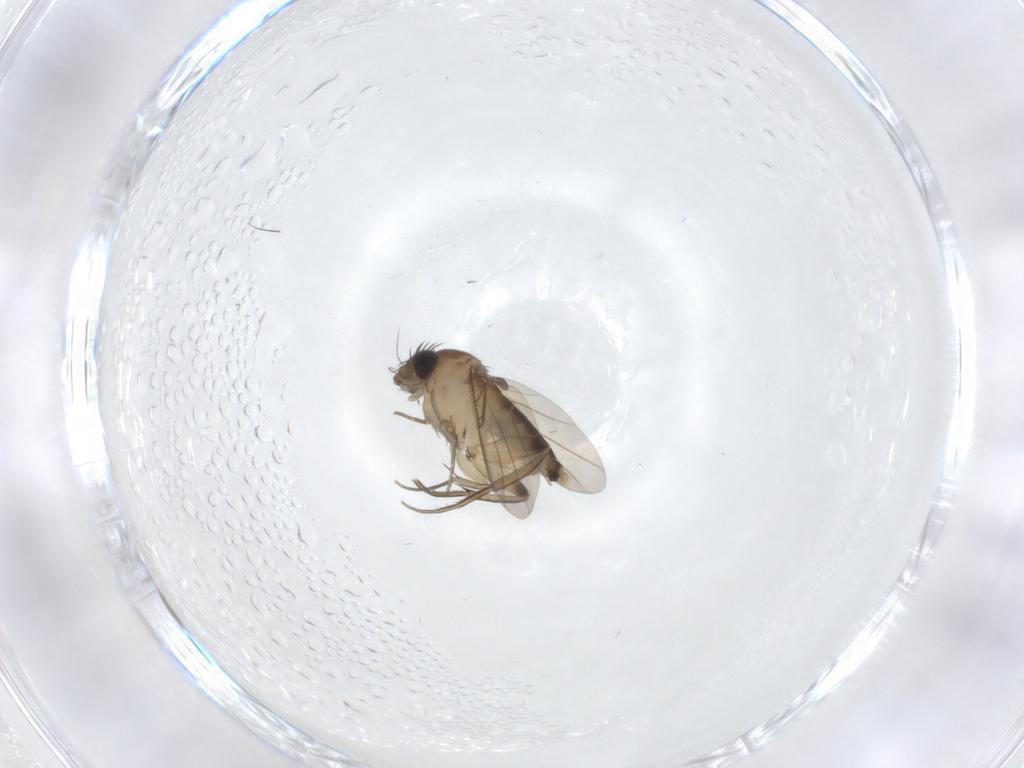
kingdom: Animalia
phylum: Arthropoda
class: Insecta
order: Diptera
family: Phoridae
